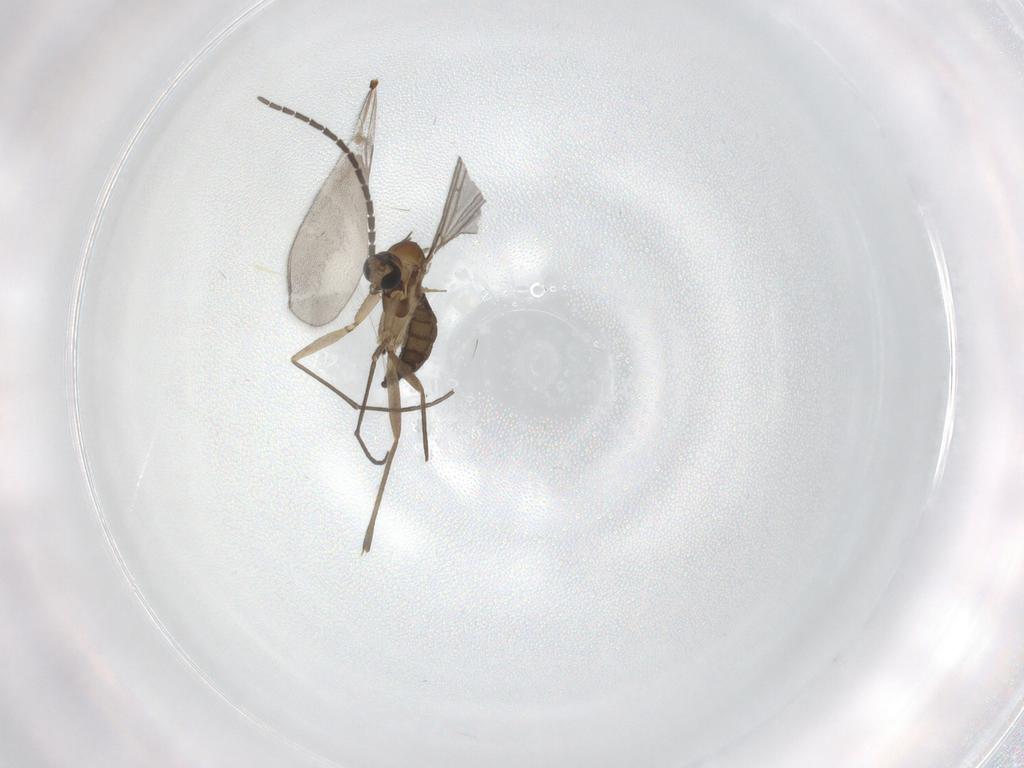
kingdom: Animalia
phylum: Arthropoda
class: Insecta
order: Diptera
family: Sciaridae
